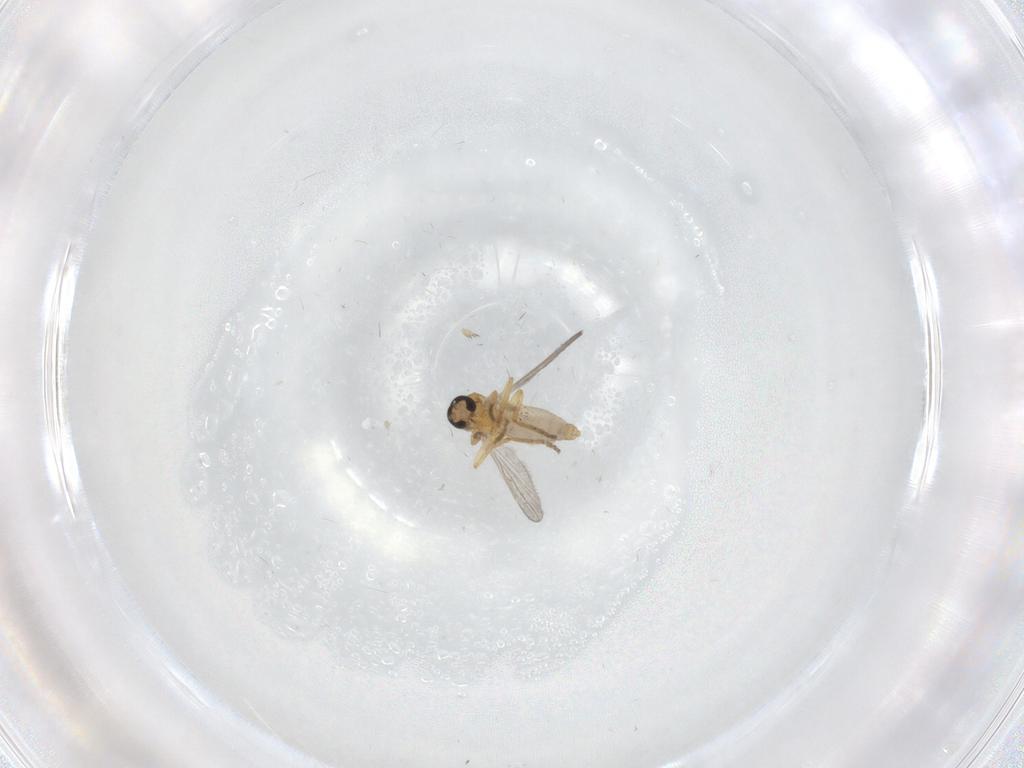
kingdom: Animalia
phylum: Arthropoda
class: Insecta
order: Diptera
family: Ceratopogonidae
